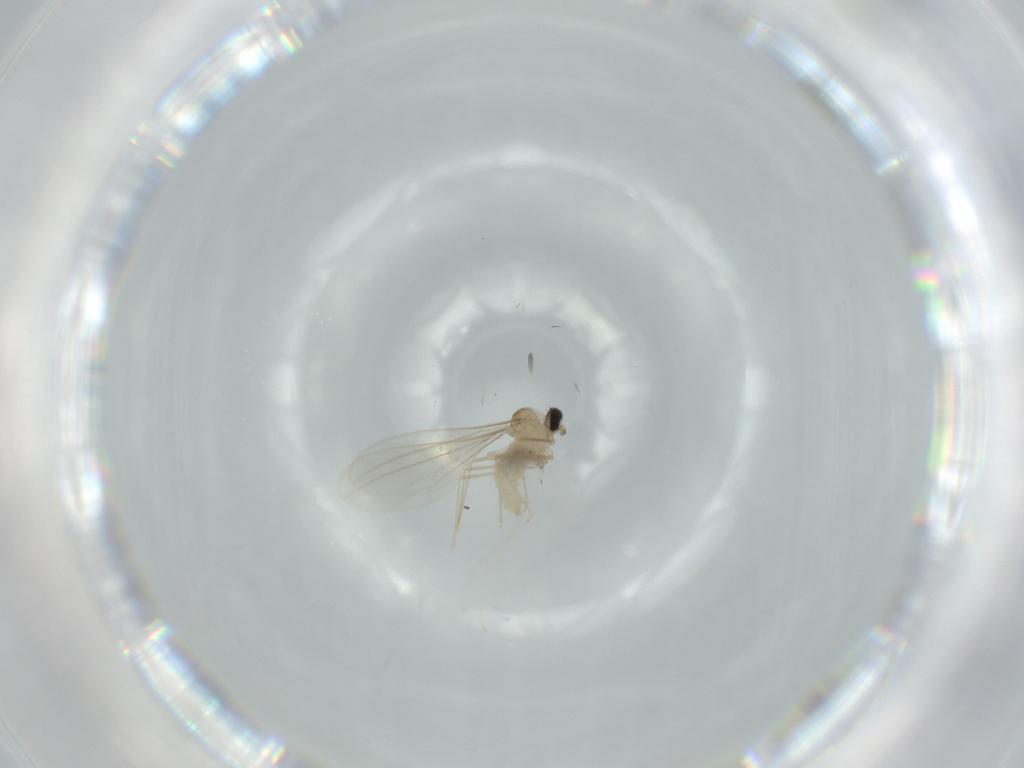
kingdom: Animalia
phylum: Arthropoda
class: Insecta
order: Diptera
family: Cecidomyiidae
